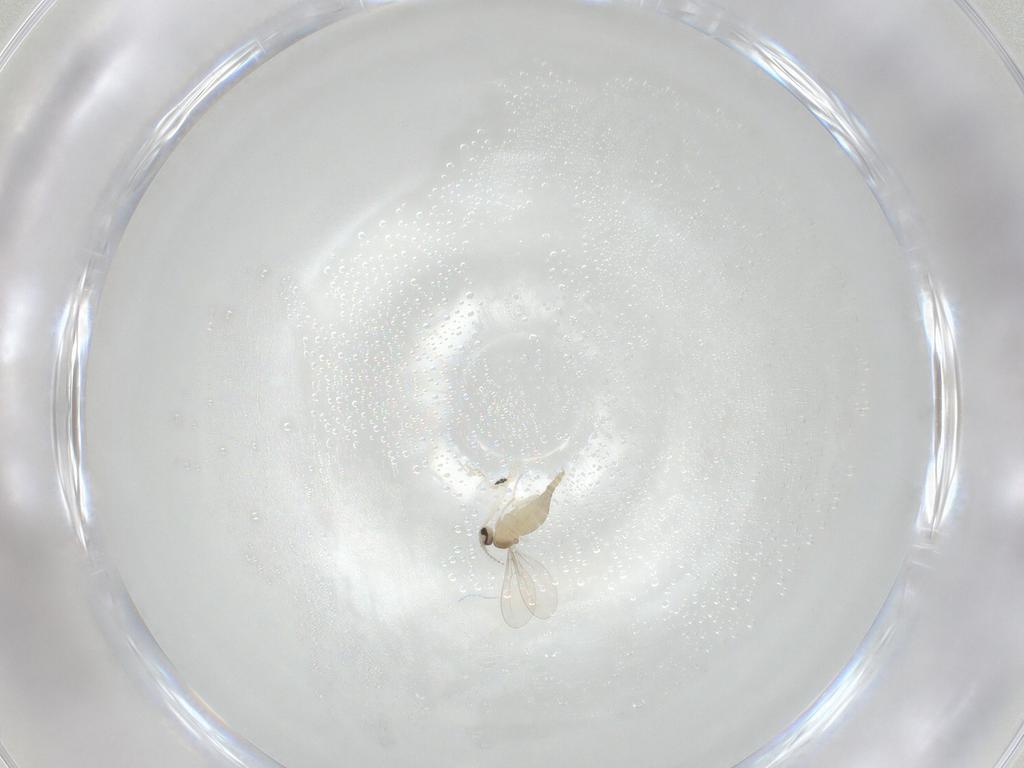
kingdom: Animalia
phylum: Arthropoda
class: Insecta
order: Diptera
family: Cecidomyiidae
